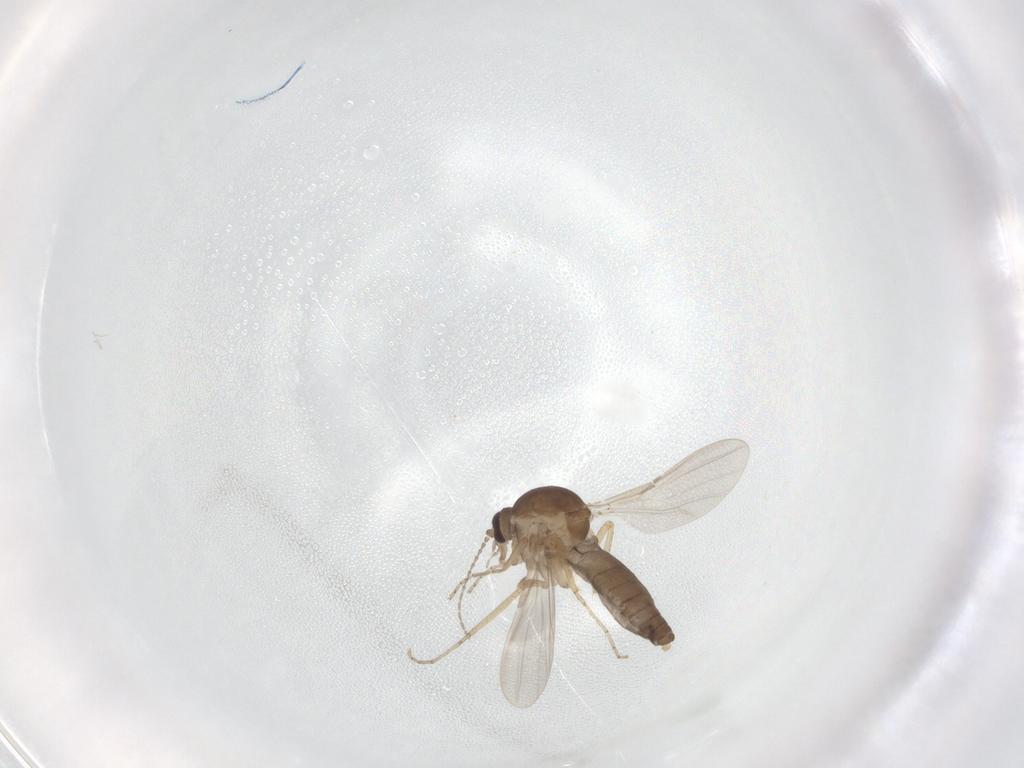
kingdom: Animalia
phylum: Arthropoda
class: Insecta
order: Diptera
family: Ceratopogonidae
